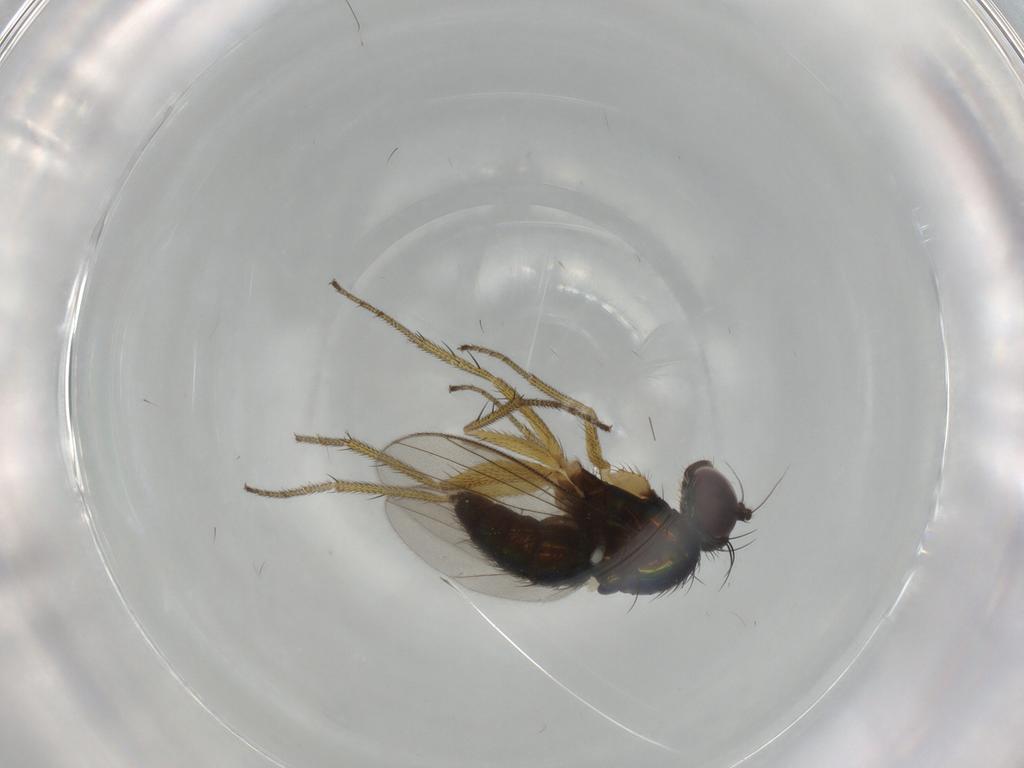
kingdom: Animalia
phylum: Arthropoda
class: Insecta
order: Diptera
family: Dolichopodidae
